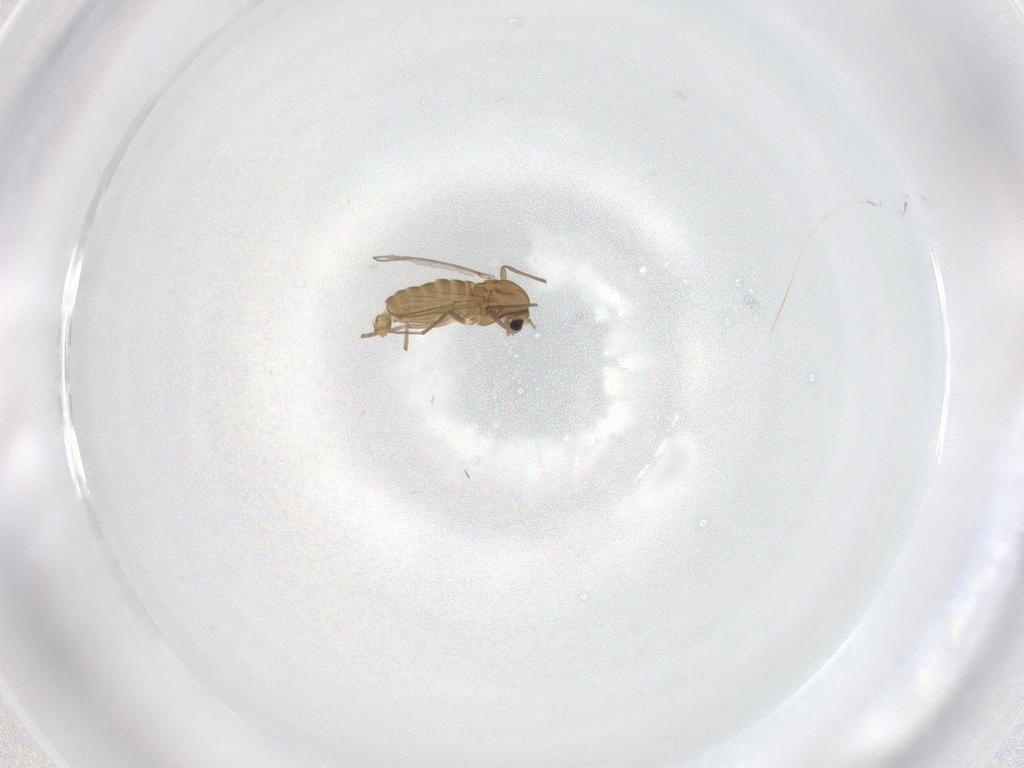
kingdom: Animalia
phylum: Arthropoda
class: Insecta
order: Diptera
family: Chironomidae
